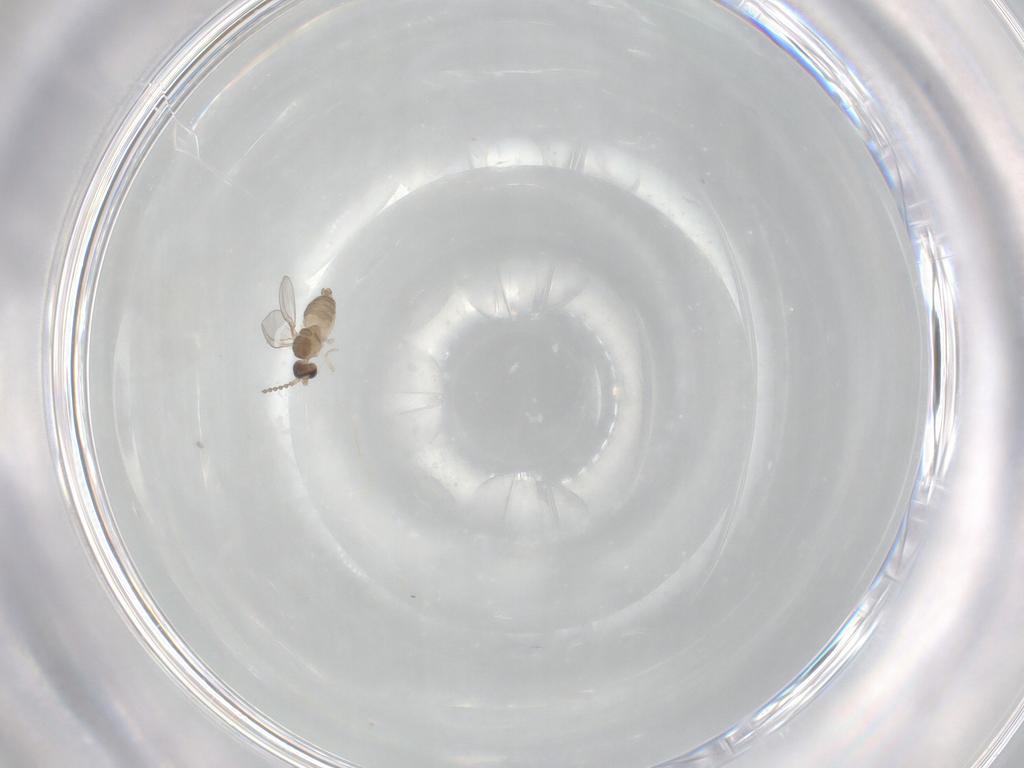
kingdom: Animalia
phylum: Arthropoda
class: Insecta
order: Diptera
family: Cecidomyiidae
